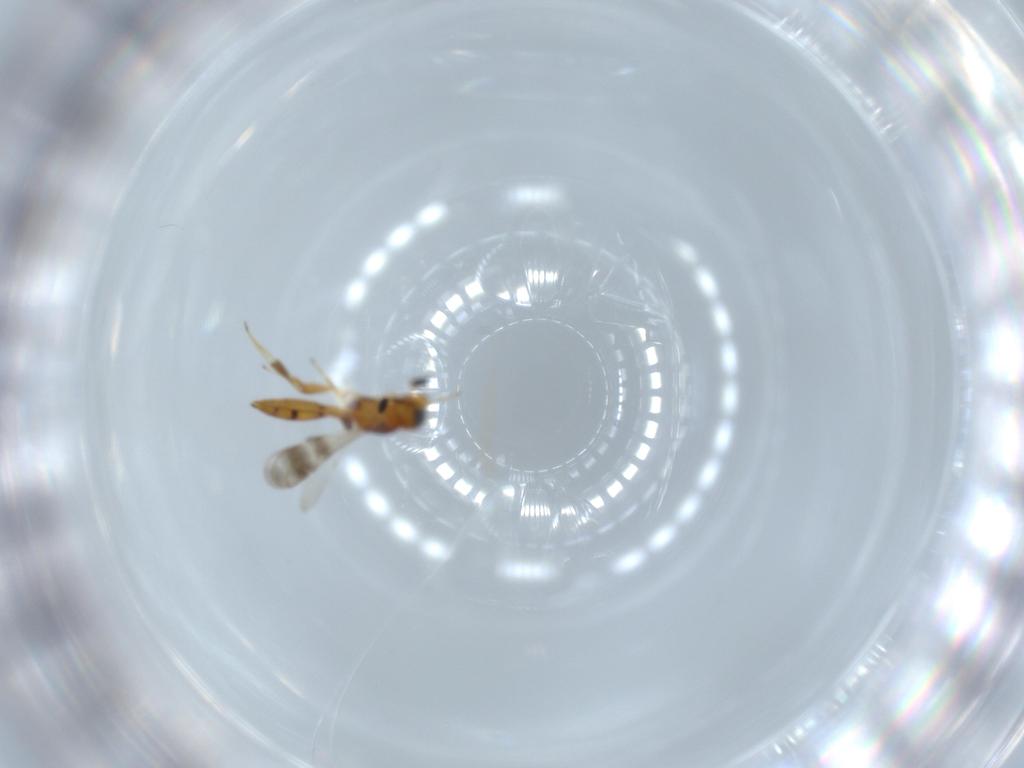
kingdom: Animalia
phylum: Arthropoda
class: Insecta
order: Hymenoptera
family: Scelionidae
